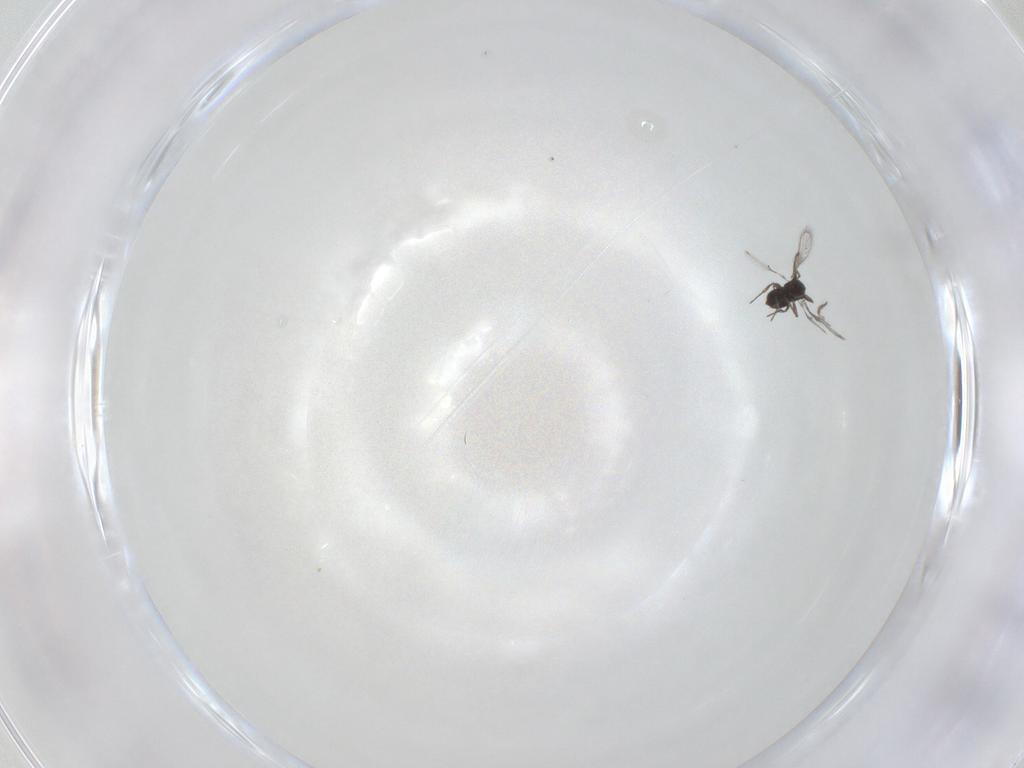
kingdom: Animalia
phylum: Arthropoda
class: Insecta
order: Hymenoptera
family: Trichogrammatidae
